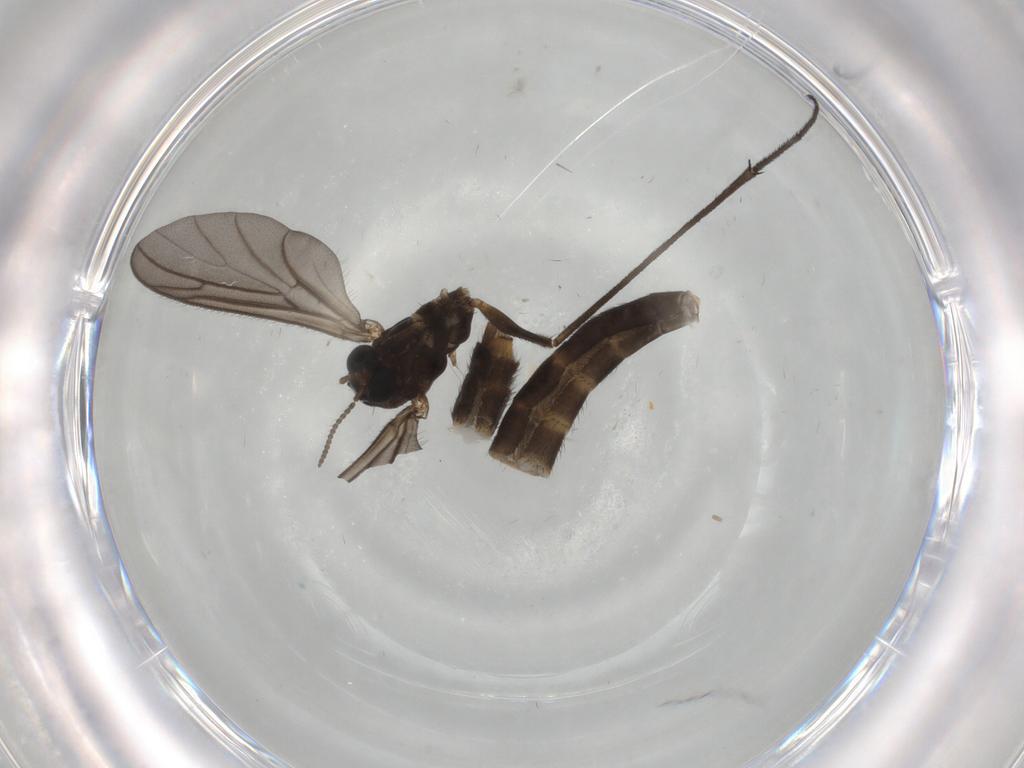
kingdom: Animalia
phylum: Arthropoda
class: Insecta
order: Diptera
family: Keroplatidae
